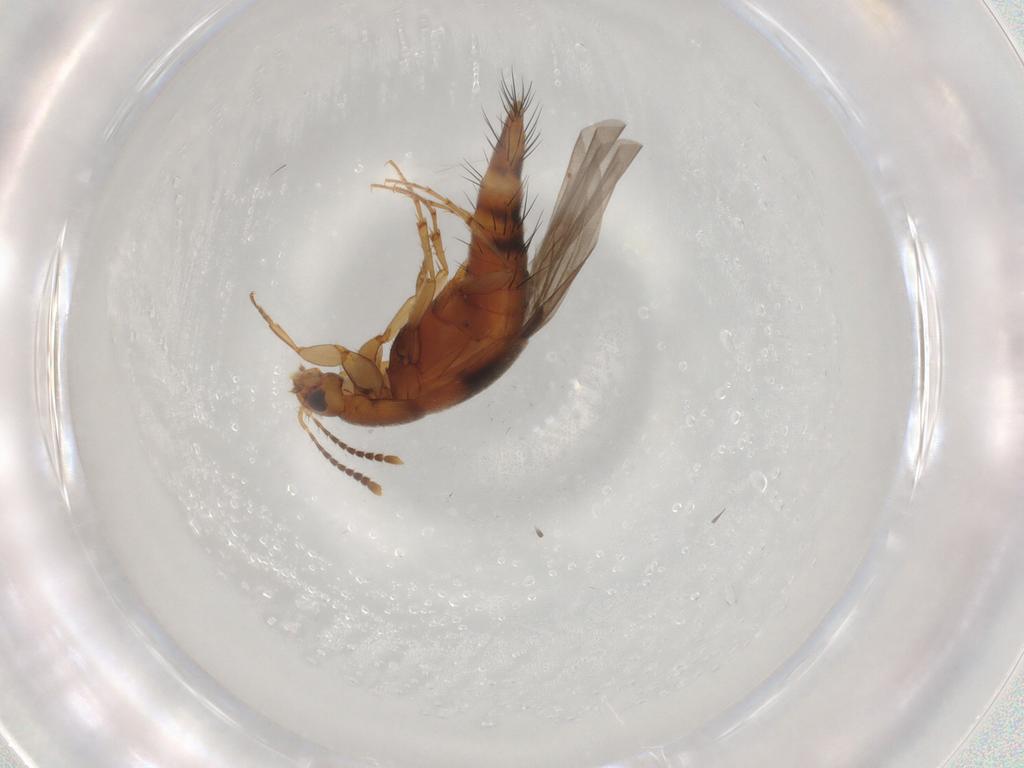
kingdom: Animalia
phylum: Arthropoda
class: Insecta
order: Coleoptera
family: Staphylinidae
